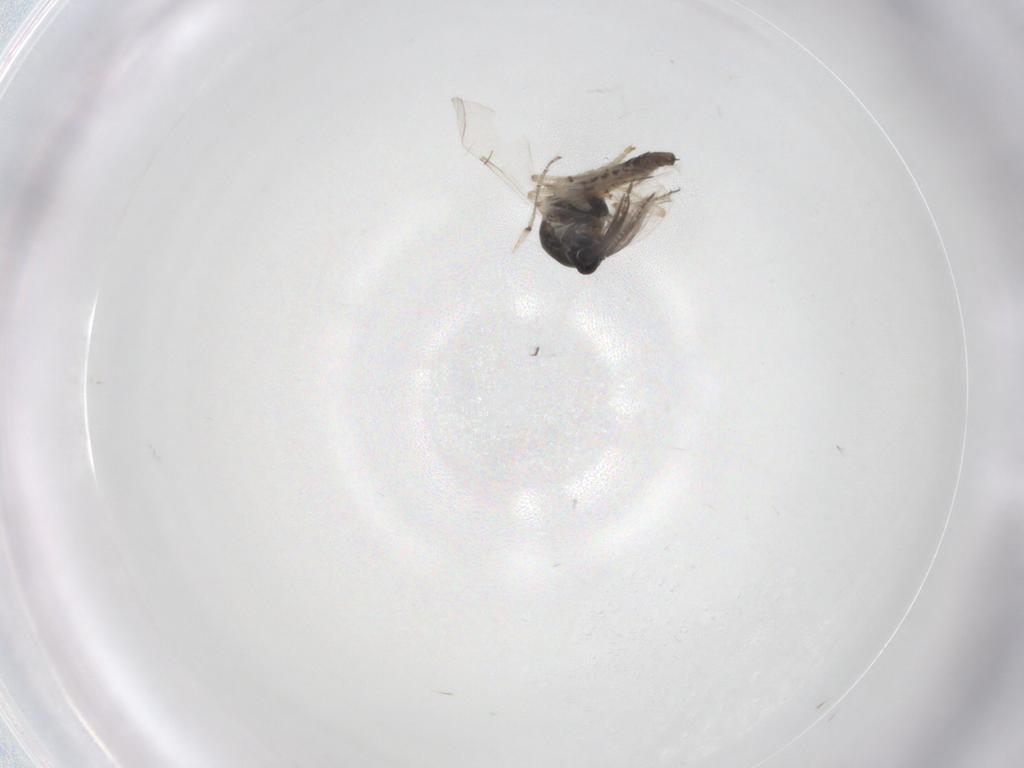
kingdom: Animalia
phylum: Arthropoda
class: Insecta
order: Diptera
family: Ceratopogonidae
